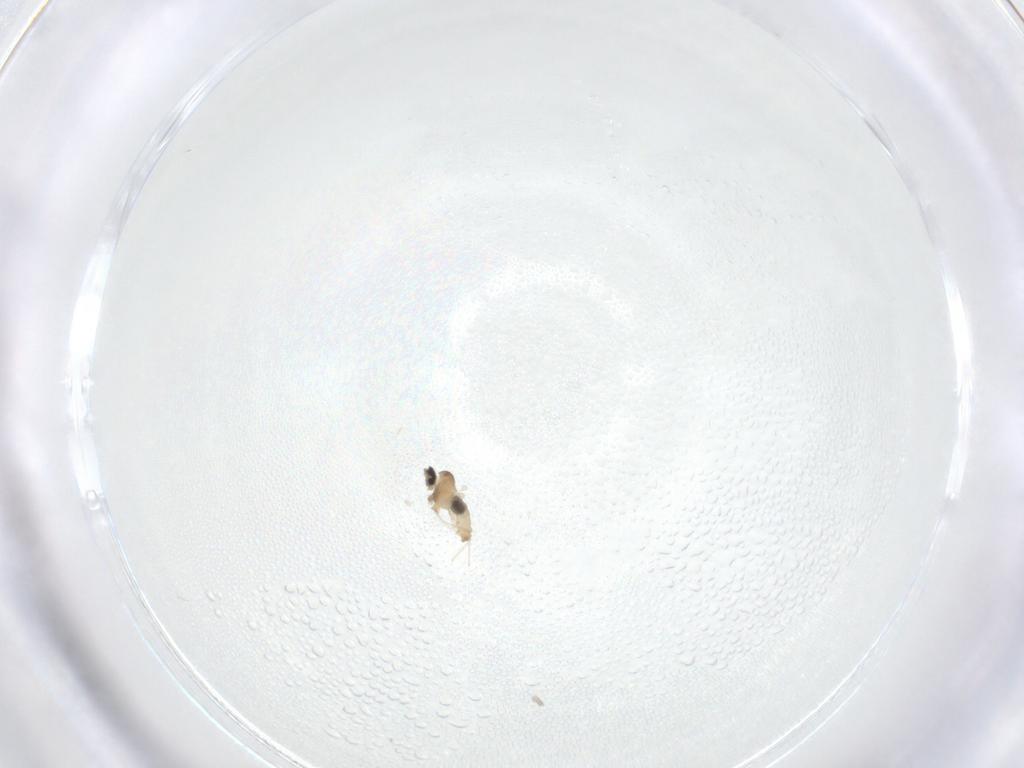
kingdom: Animalia
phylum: Arthropoda
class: Insecta
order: Diptera
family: Cecidomyiidae
